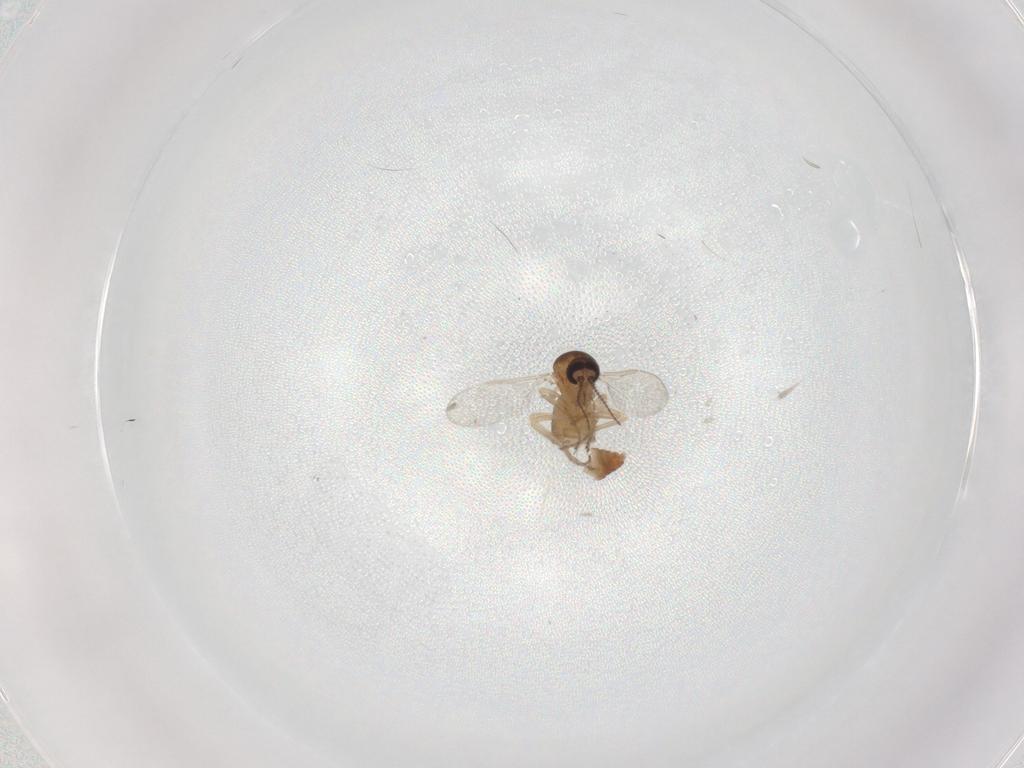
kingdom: Animalia
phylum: Arthropoda
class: Insecta
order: Diptera
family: Ceratopogonidae
